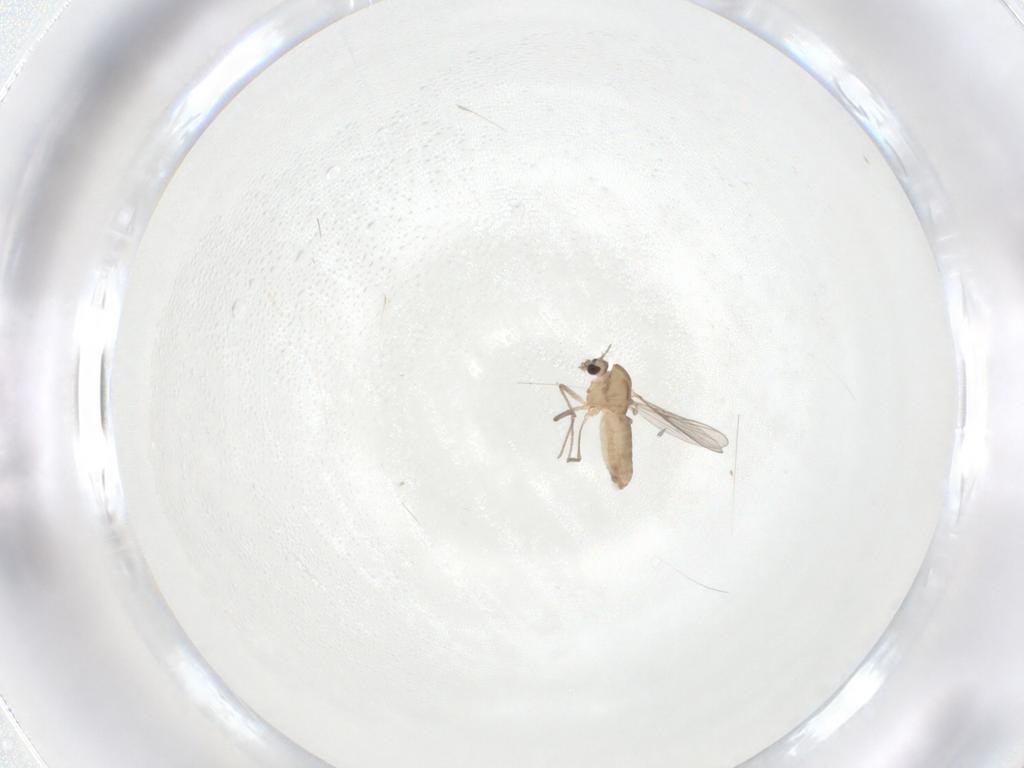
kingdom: Animalia
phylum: Arthropoda
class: Insecta
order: Diptera
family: Chironomidae
